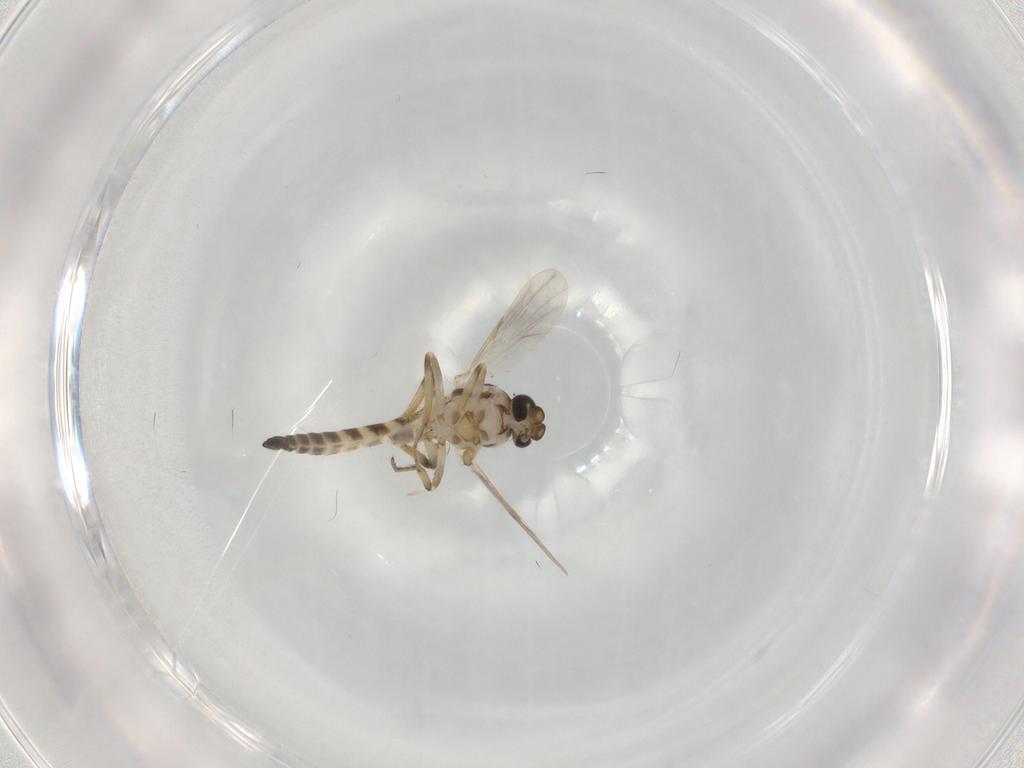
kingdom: Animalia
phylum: Arthropoda
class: Insecta
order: Diptera
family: Ceratopogonidae
